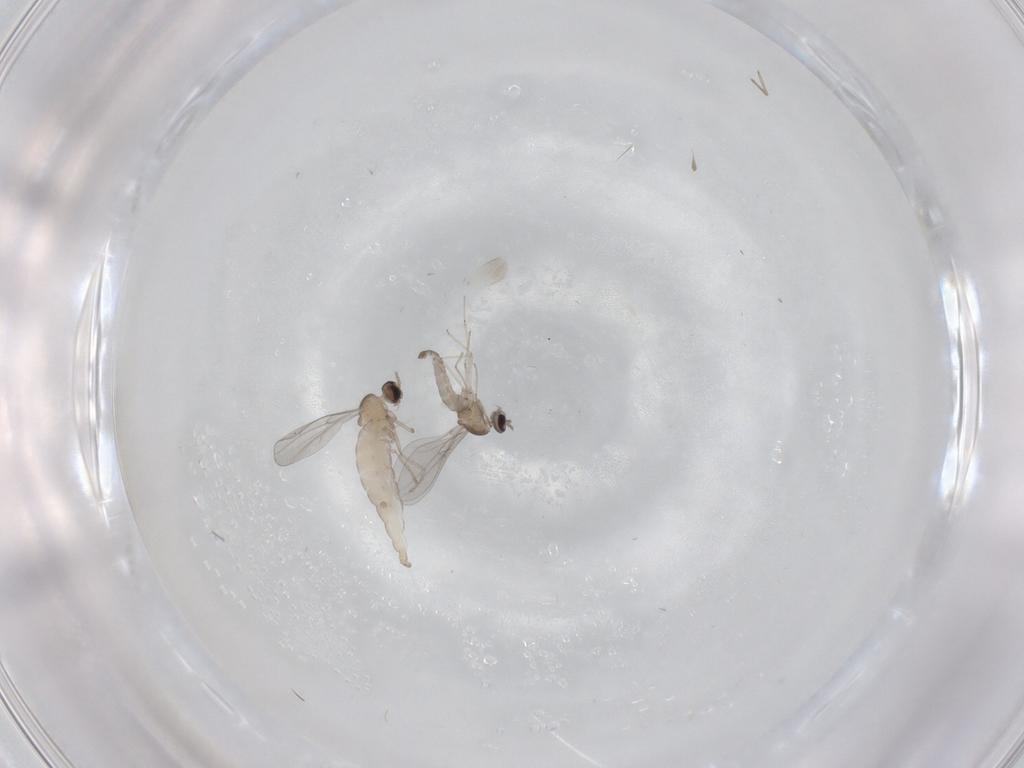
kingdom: Animalia
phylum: Arthropoda
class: Insecta
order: Diptera
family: Cecidomyiidae
